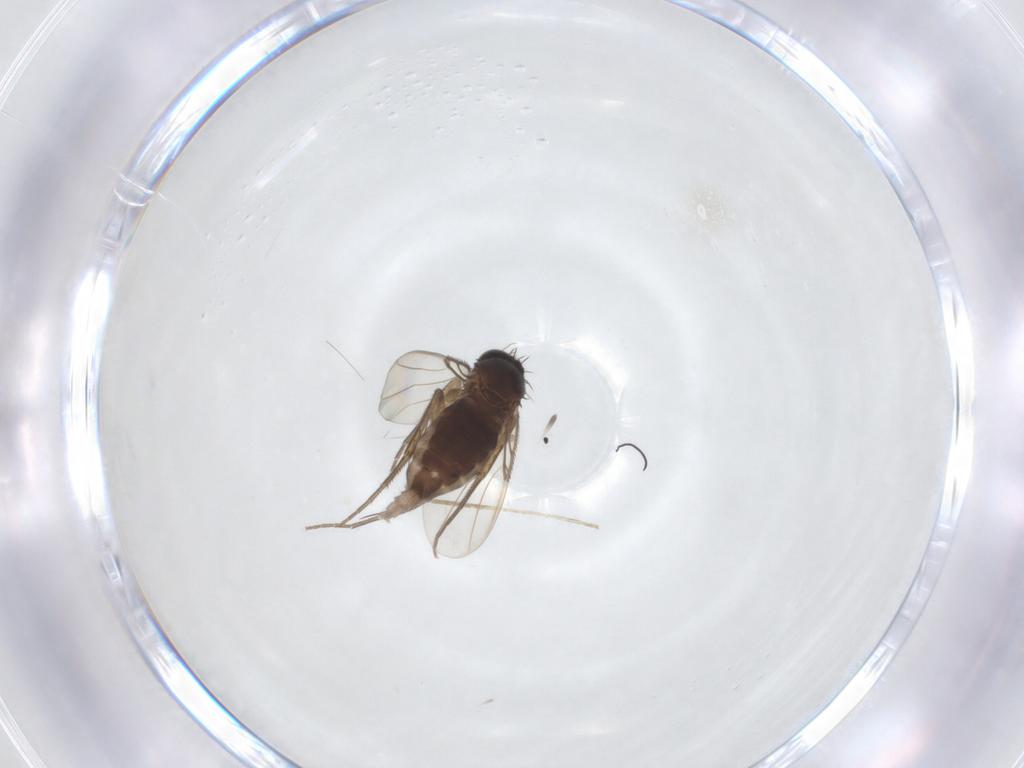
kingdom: Animalia
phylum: Arthropoda
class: Insecta
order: Diptera
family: Phoridae
